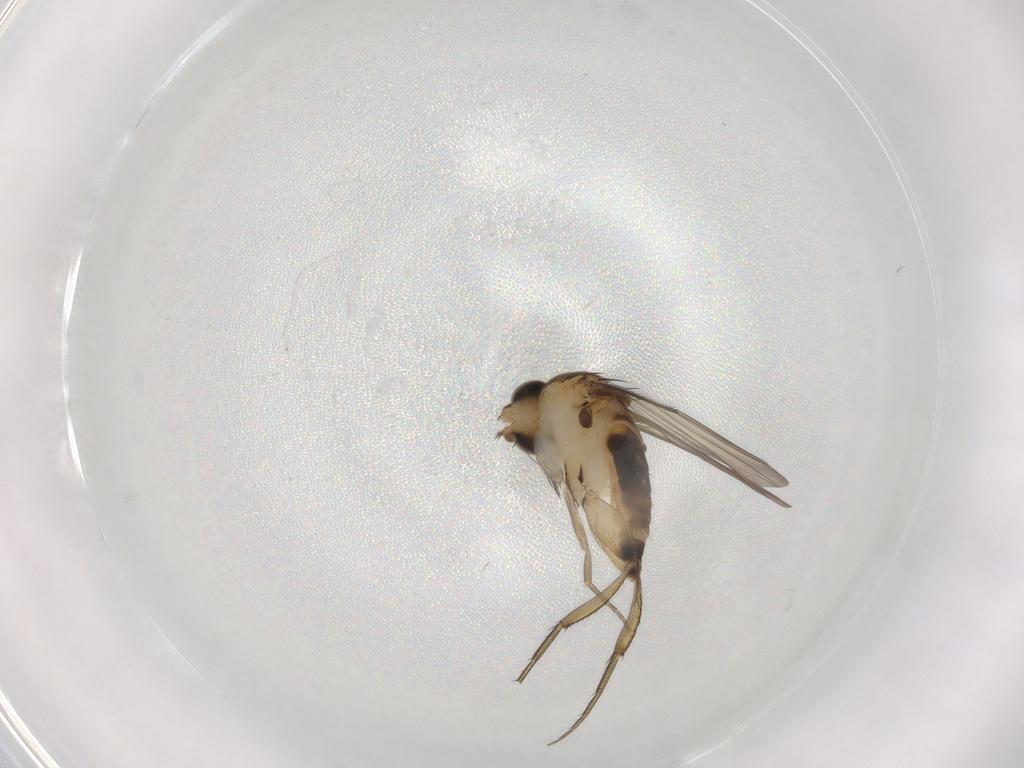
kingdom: Animalia
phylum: Arthropoda
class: Insecta
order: Diptera
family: Phoridae
